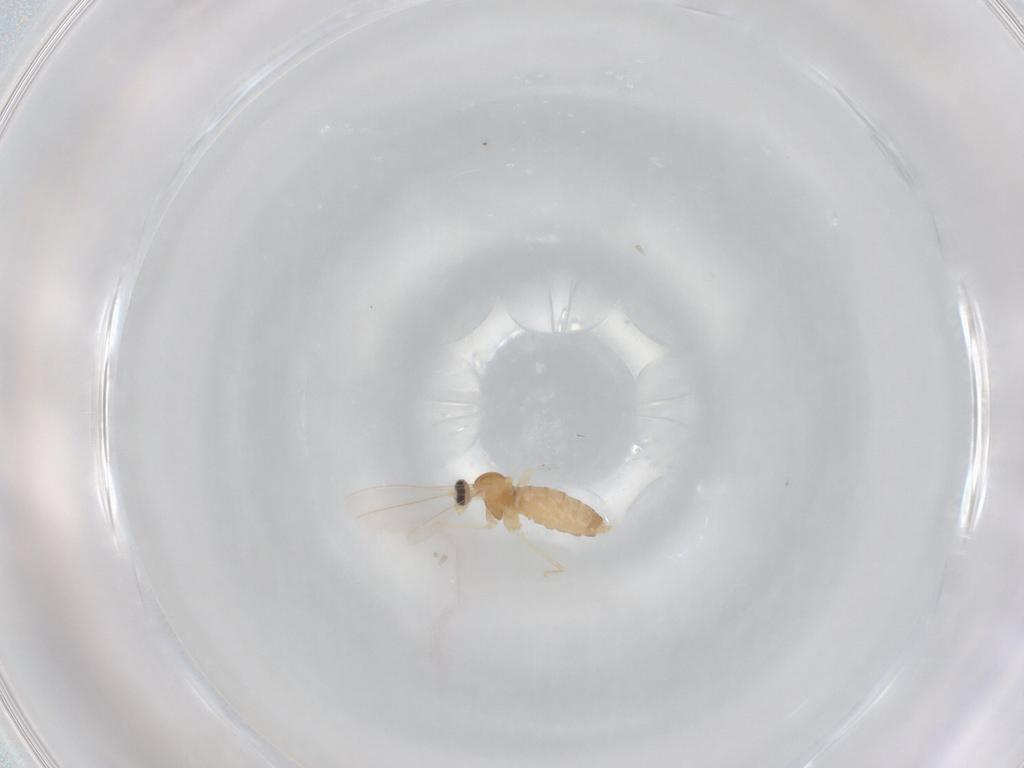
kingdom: Animalia
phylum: Arthropoda
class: Insecta
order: Diptera
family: Cecidomyiidae
